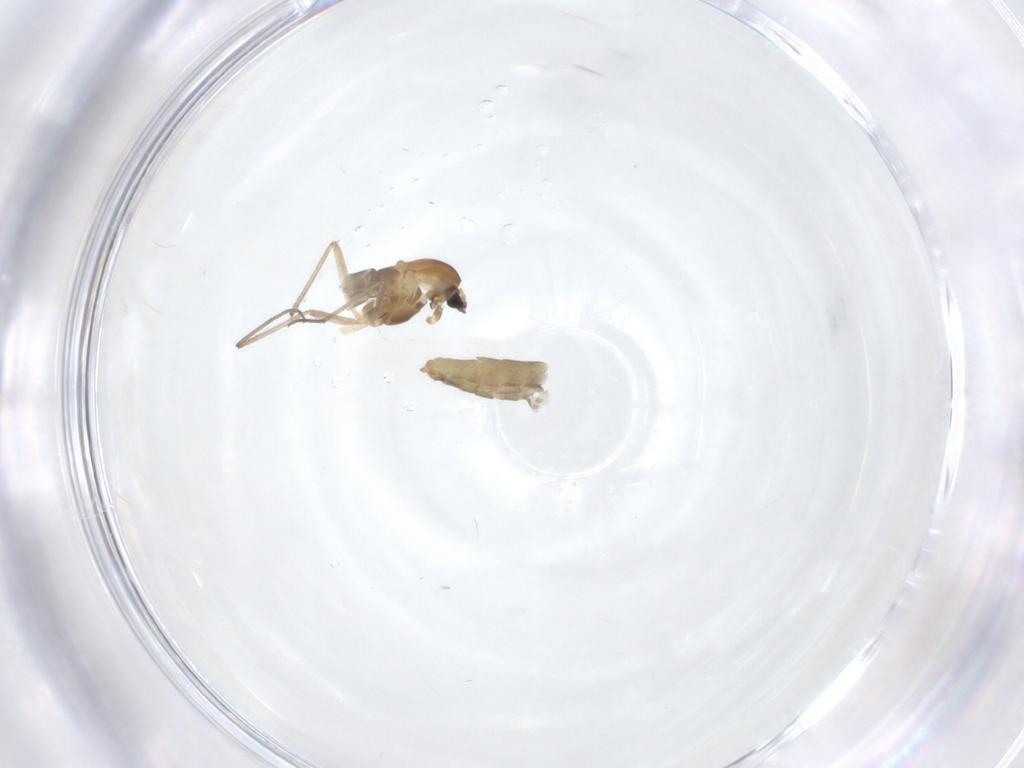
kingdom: Animalia
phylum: Arthropoda
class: Insecta
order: Diptera
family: Chironomidae
